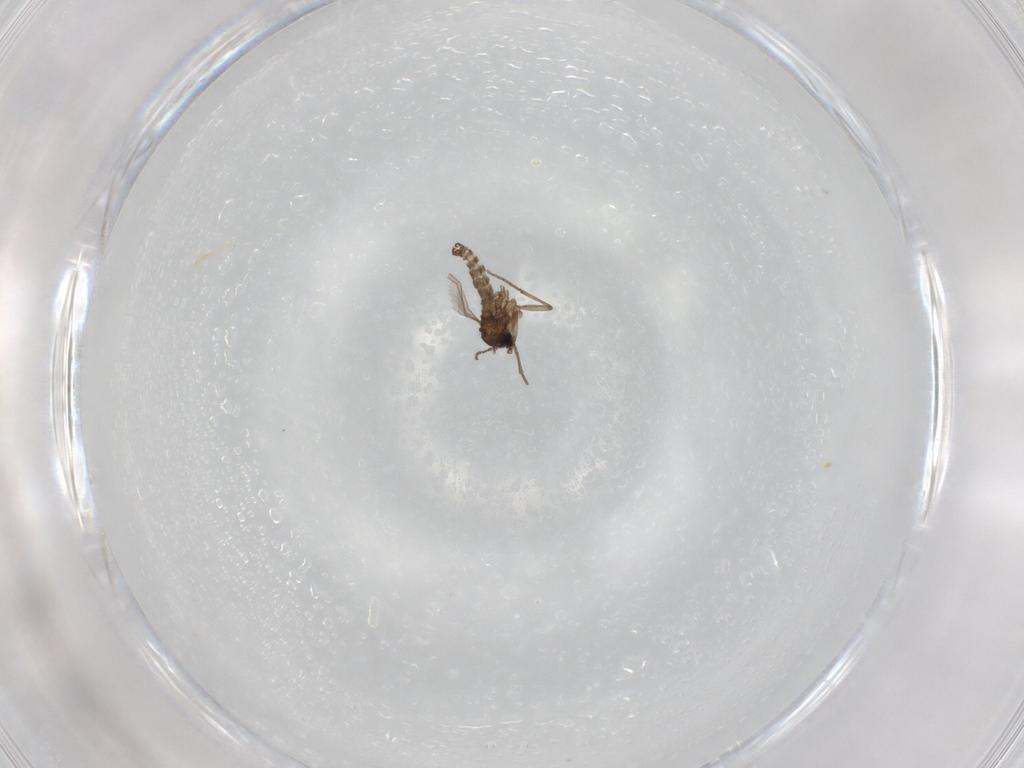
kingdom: Animalia
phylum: Arthropoda
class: Insecta
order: Diptera
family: Sciaridae
